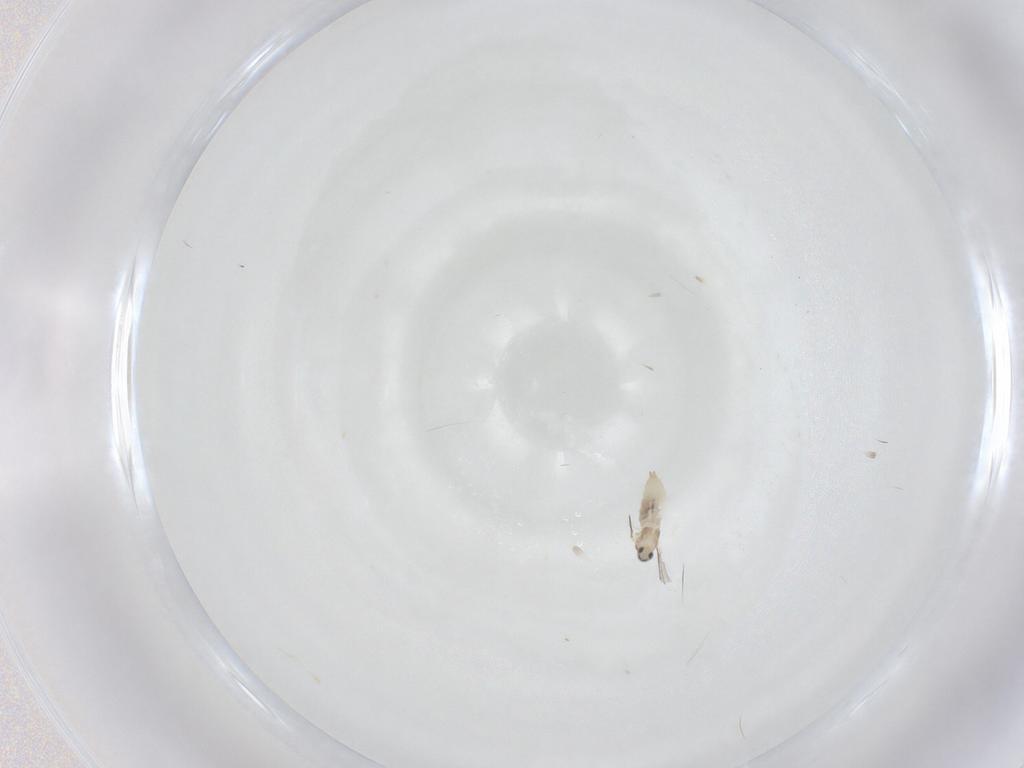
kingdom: Animalia
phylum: Arthropoda
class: Insecta
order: Diptera
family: Cecidomyiidae
